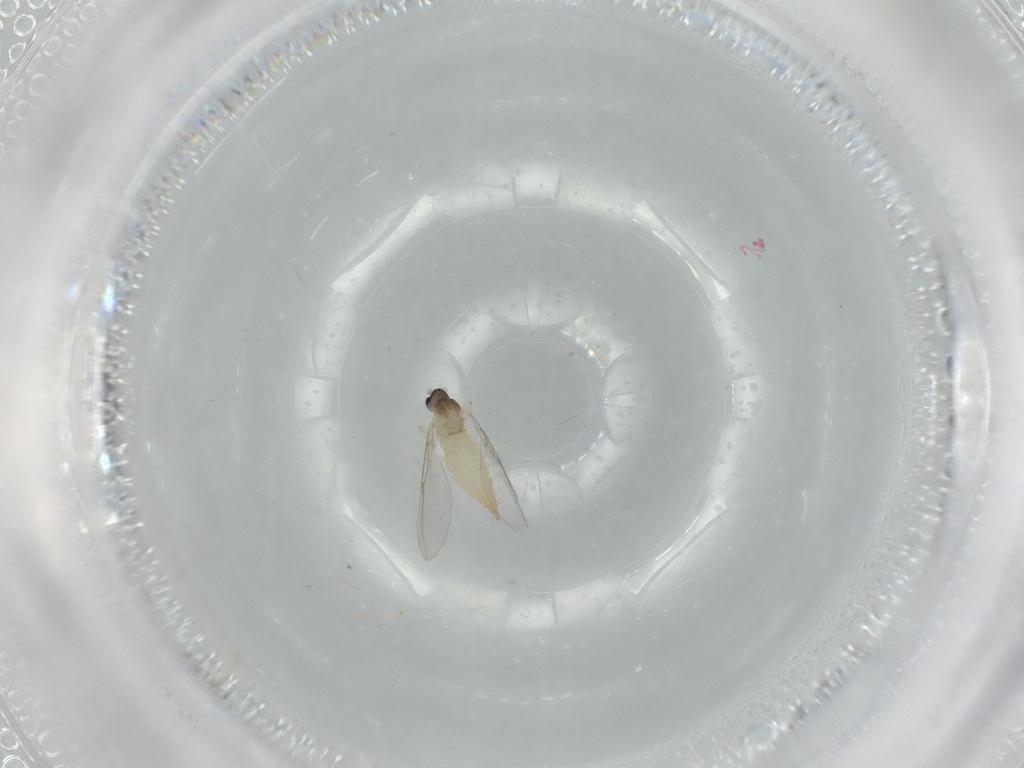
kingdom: Animalia
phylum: Arthropoda
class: Insecta
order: Diptera
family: Cecidomyiidae
